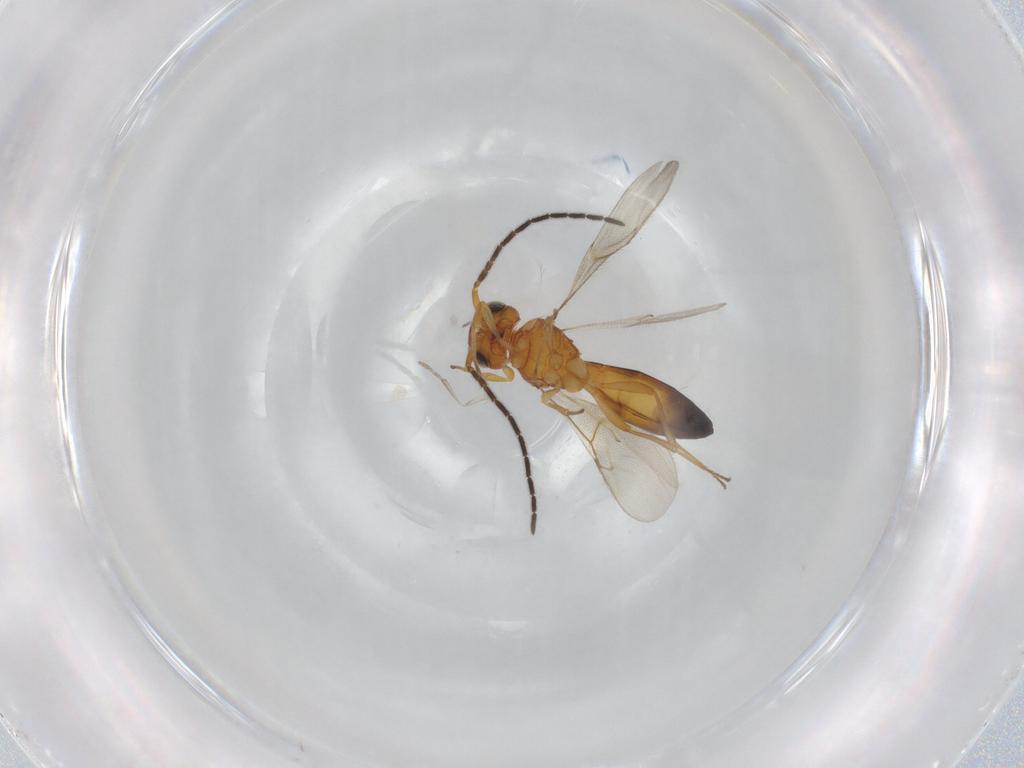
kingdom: Animalia
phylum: Arthropoda
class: Insecta
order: Hymenoptera
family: Scelionidae
